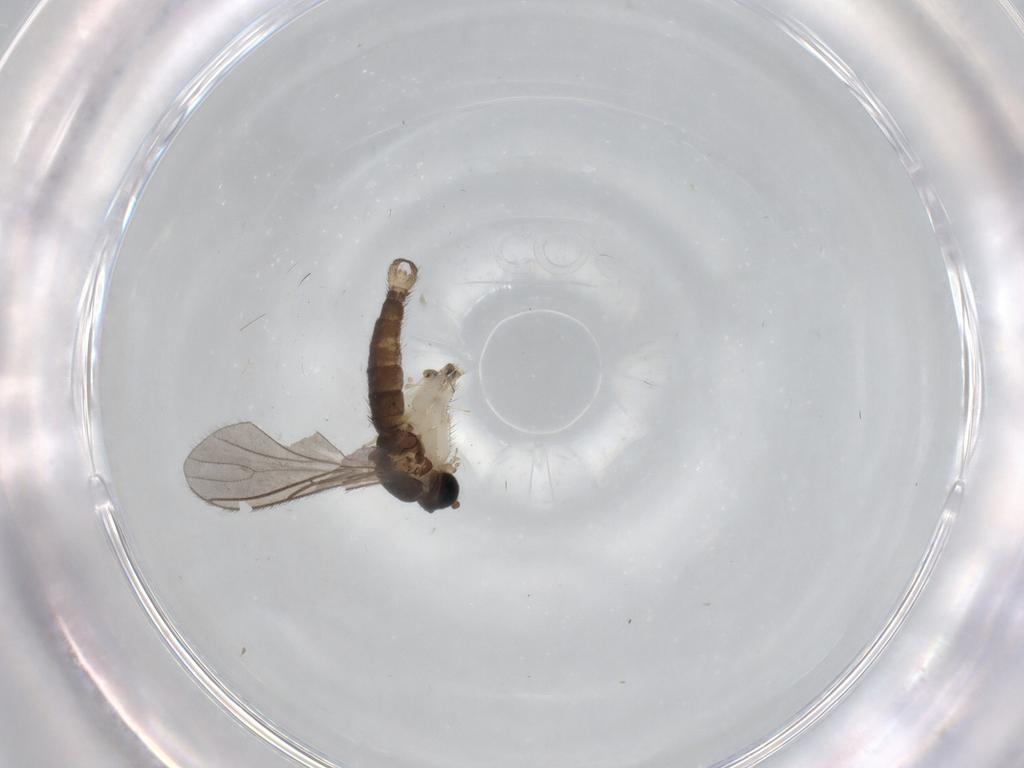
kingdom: Animalia
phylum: Arthropoda
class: Insecta
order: Diptera
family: Sciaridae
